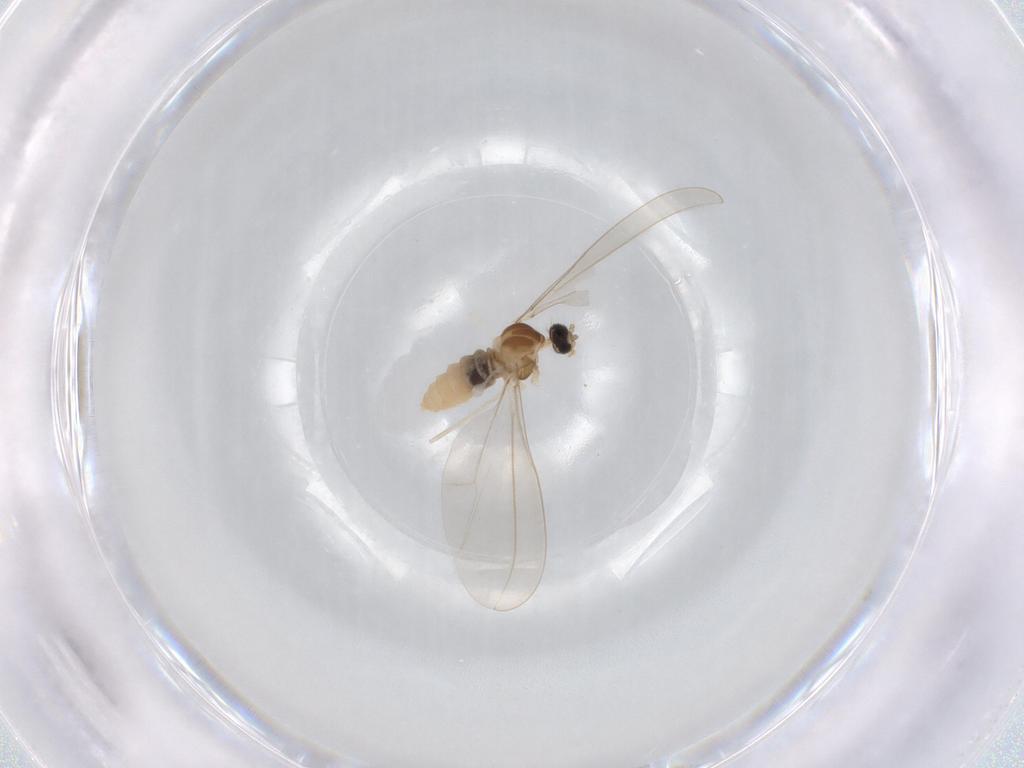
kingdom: Animalia
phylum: Arthropoda
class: Insecta
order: Diptera
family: Cecidomyiidae
